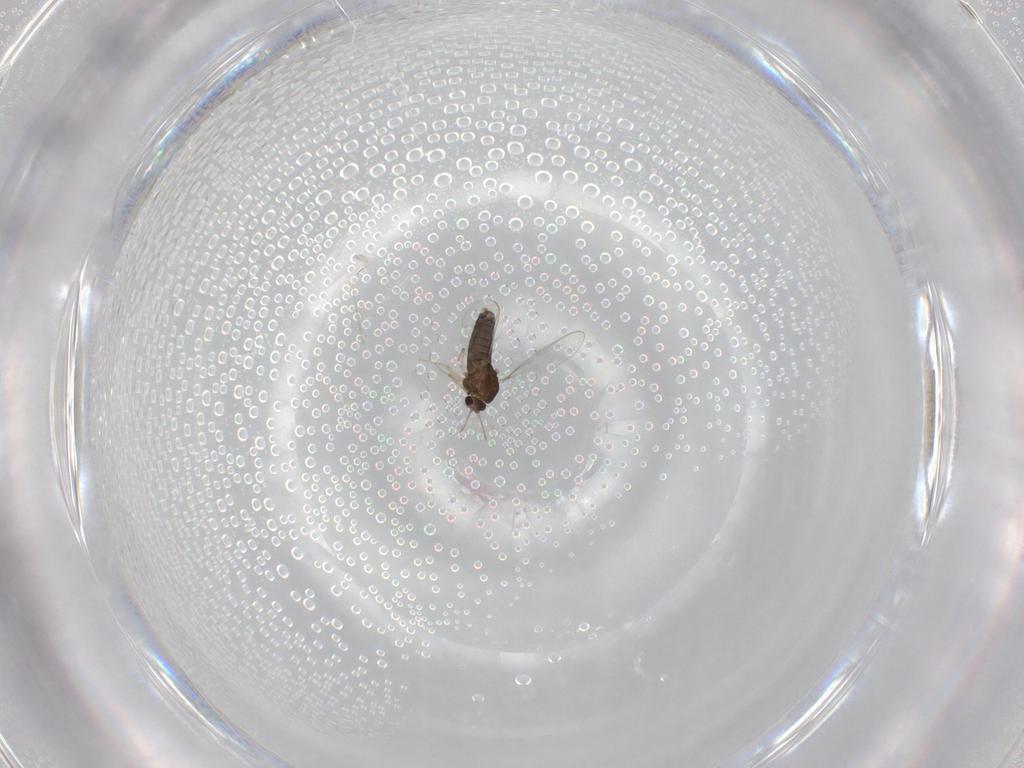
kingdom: Animalia
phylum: Arthropoda
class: Insecta
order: Diptera
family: Chironomidae
